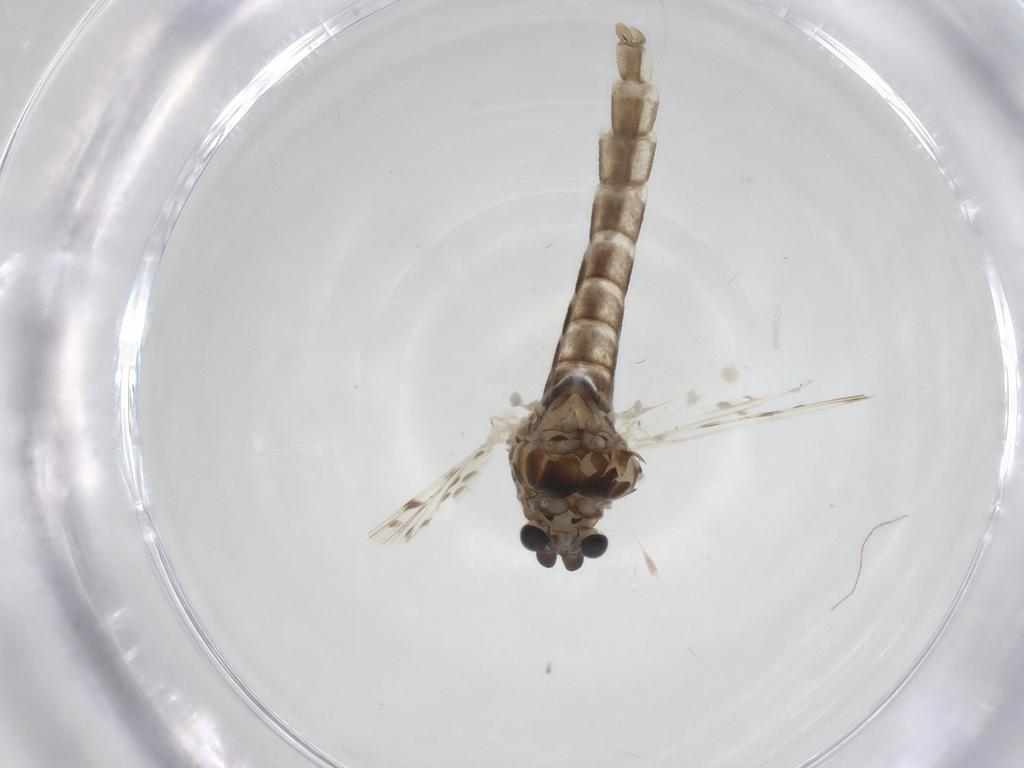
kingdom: Animalia
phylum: Arthropoda
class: Insecta
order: Diptera
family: Chironomidae
